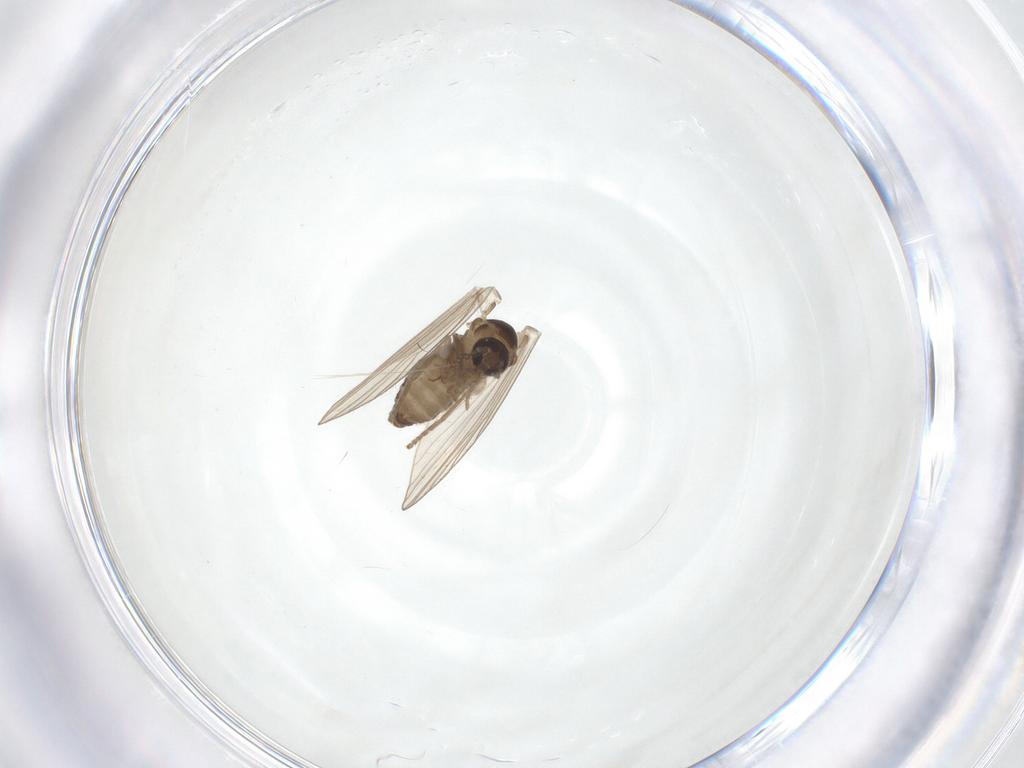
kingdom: Animalia
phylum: Arthropoda
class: Insecta
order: Diptera
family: Psychodidae
